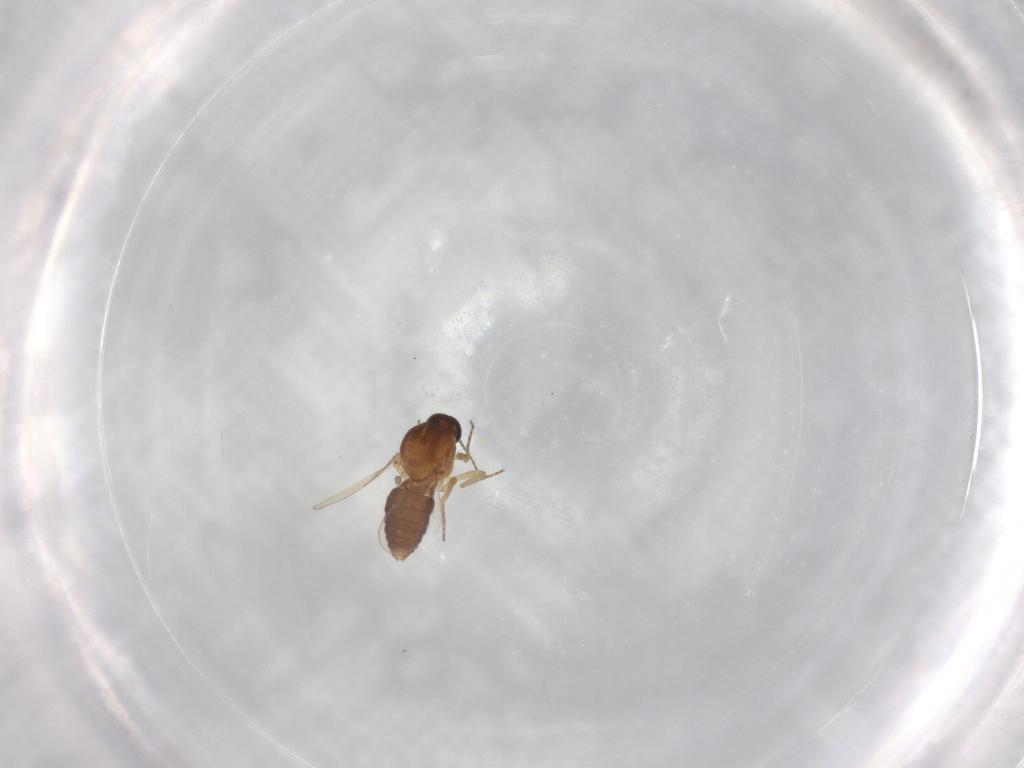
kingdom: Animalia
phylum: Arthropoda
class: Insecta
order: Diptera
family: Ceratopogonidae
